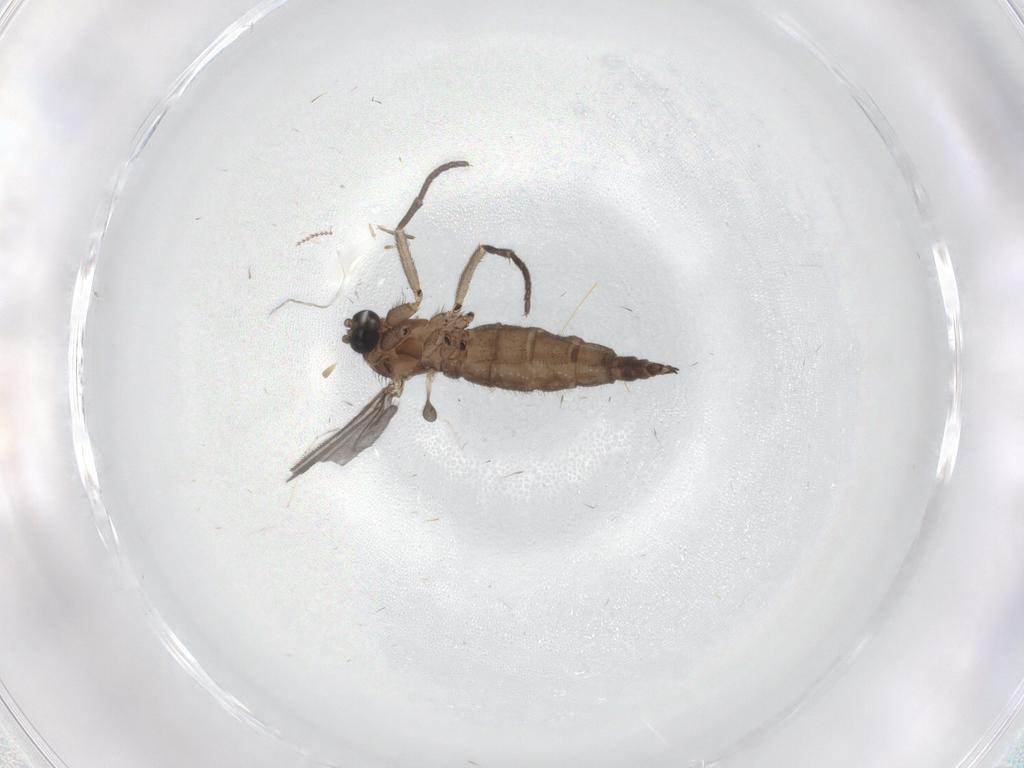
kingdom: Animalia
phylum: Arthropoda
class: Insecta
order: Diptera
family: Sciaridae
